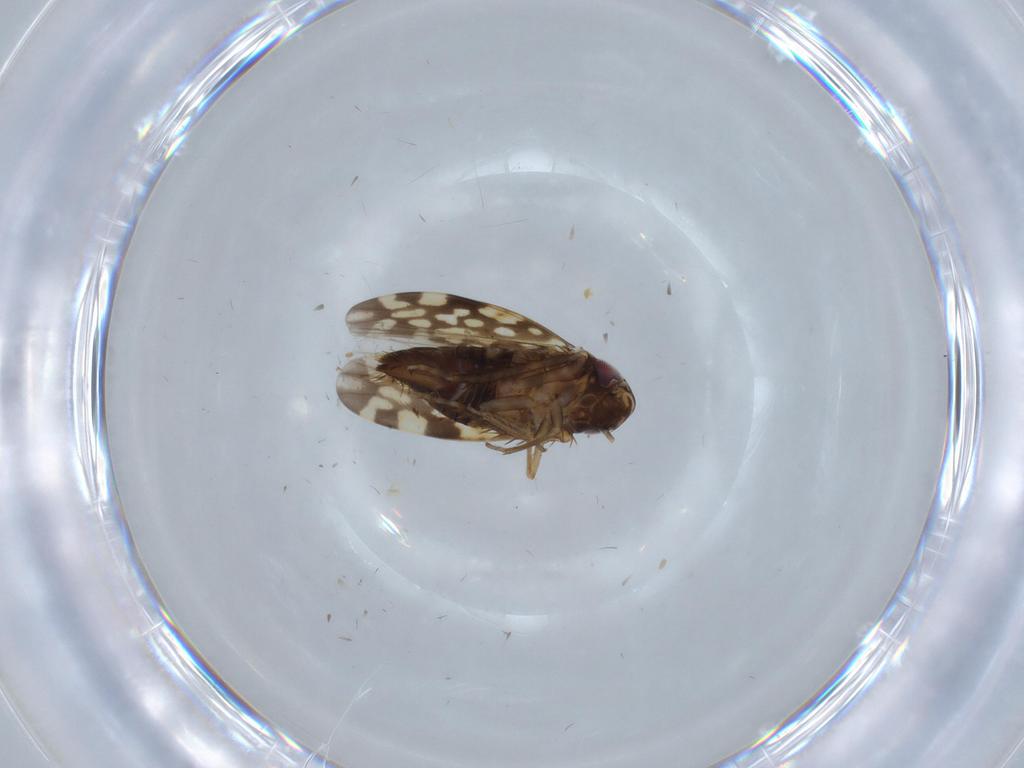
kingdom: Animalia
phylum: Arthropoda
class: Insecta
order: Hemiptera
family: Cicadellidae
